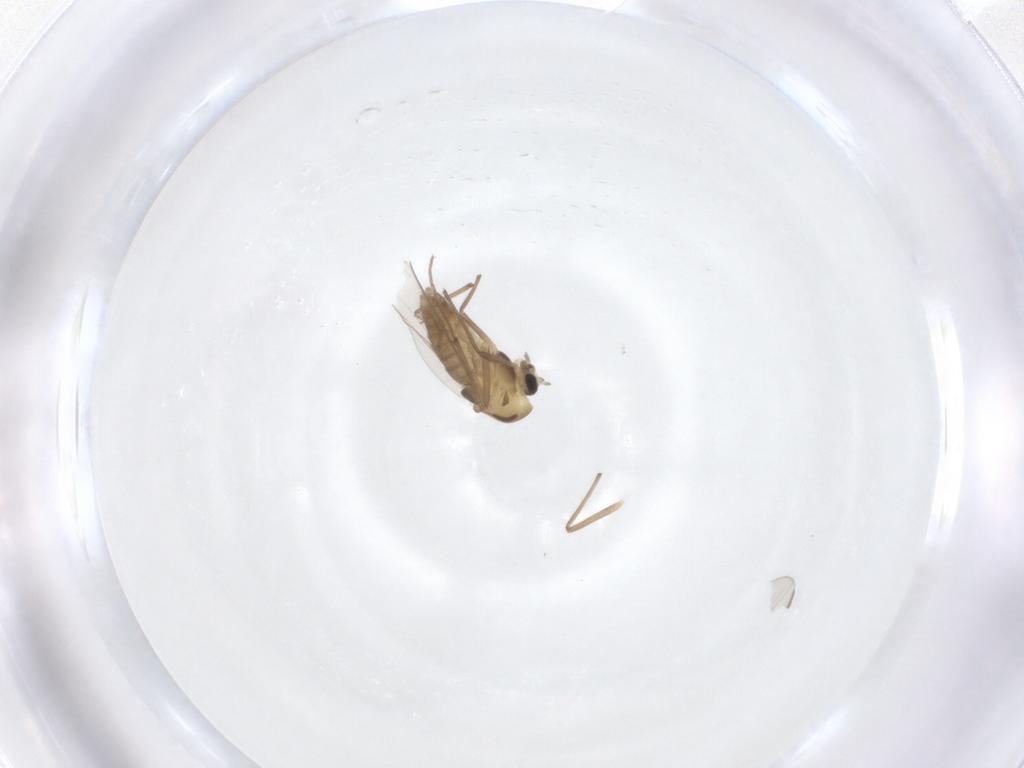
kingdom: Animalia
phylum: Arthropoda
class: Insecta
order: Diptera
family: Chironomidae
